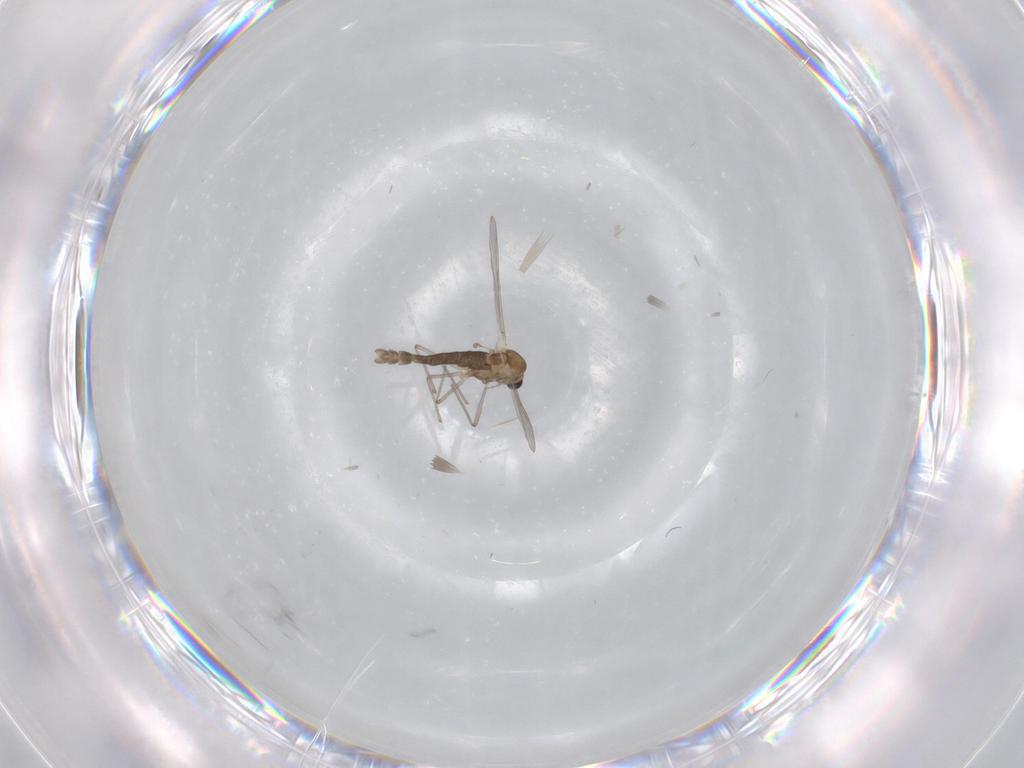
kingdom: Animalia
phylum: Arthropoda
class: Insecta
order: Diptera
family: Chironomidae
